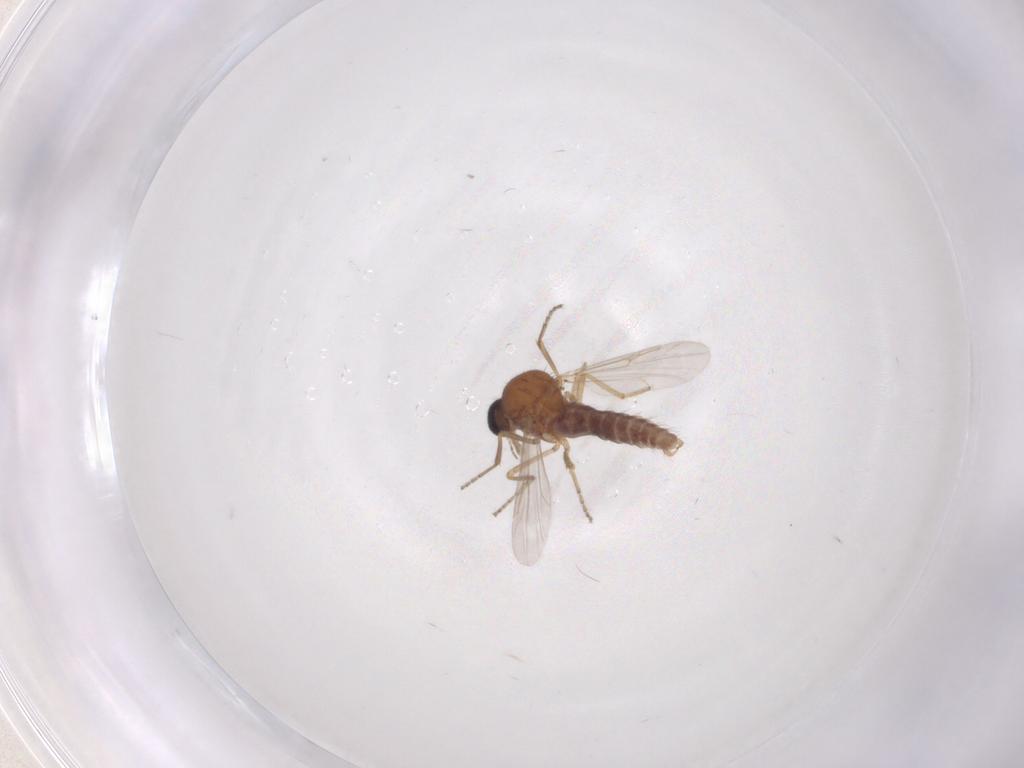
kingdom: Animalia
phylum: Arthropoda
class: Insecta
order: Diptera
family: Ceratopogonidae
